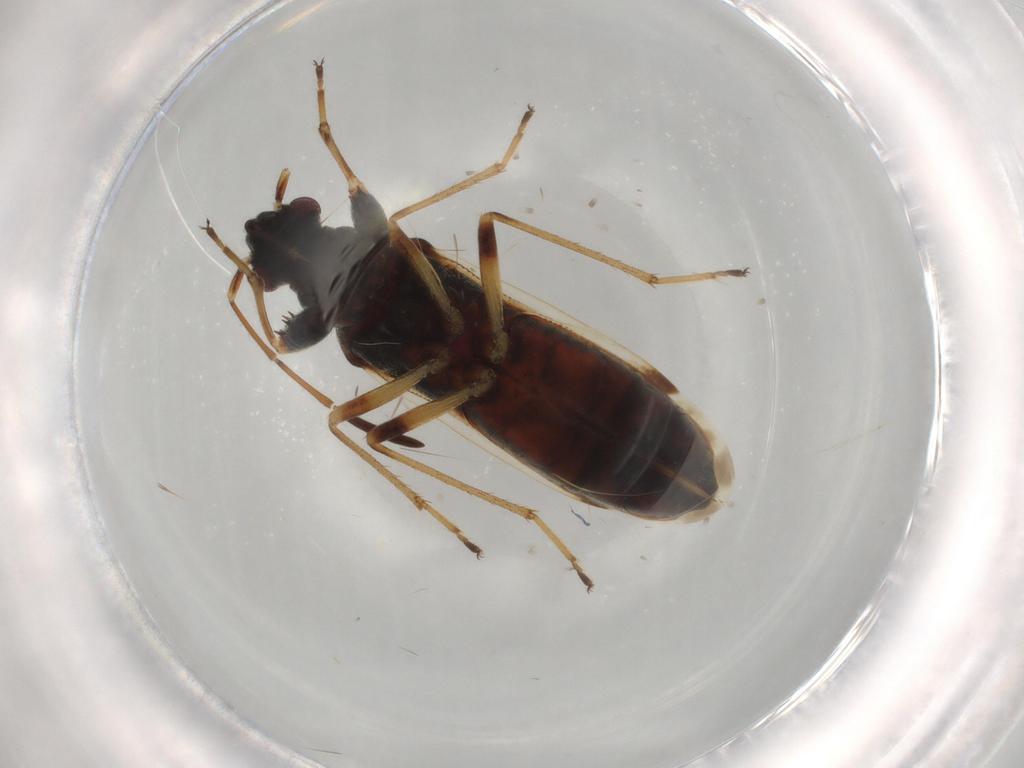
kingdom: Animalia
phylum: Arthropoda
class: Insecta
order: Hemiptera
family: Rhyparochromidae
